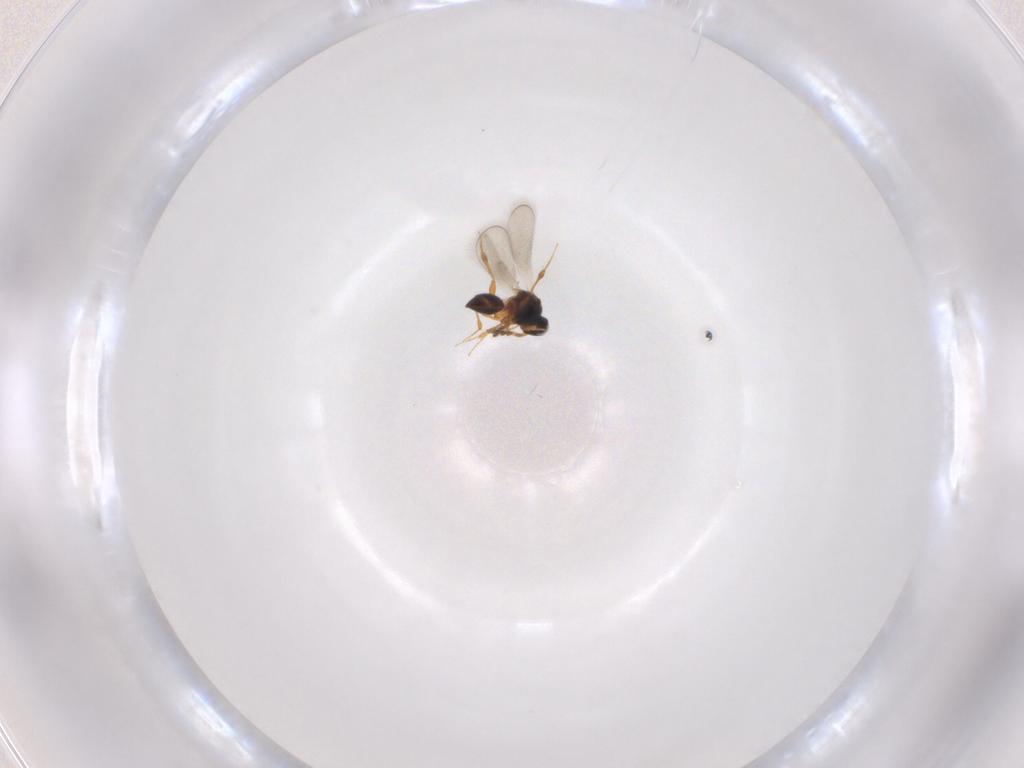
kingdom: Animalia
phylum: Arthropoda
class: Insecta
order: Hymenoptera
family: Platygastridae
